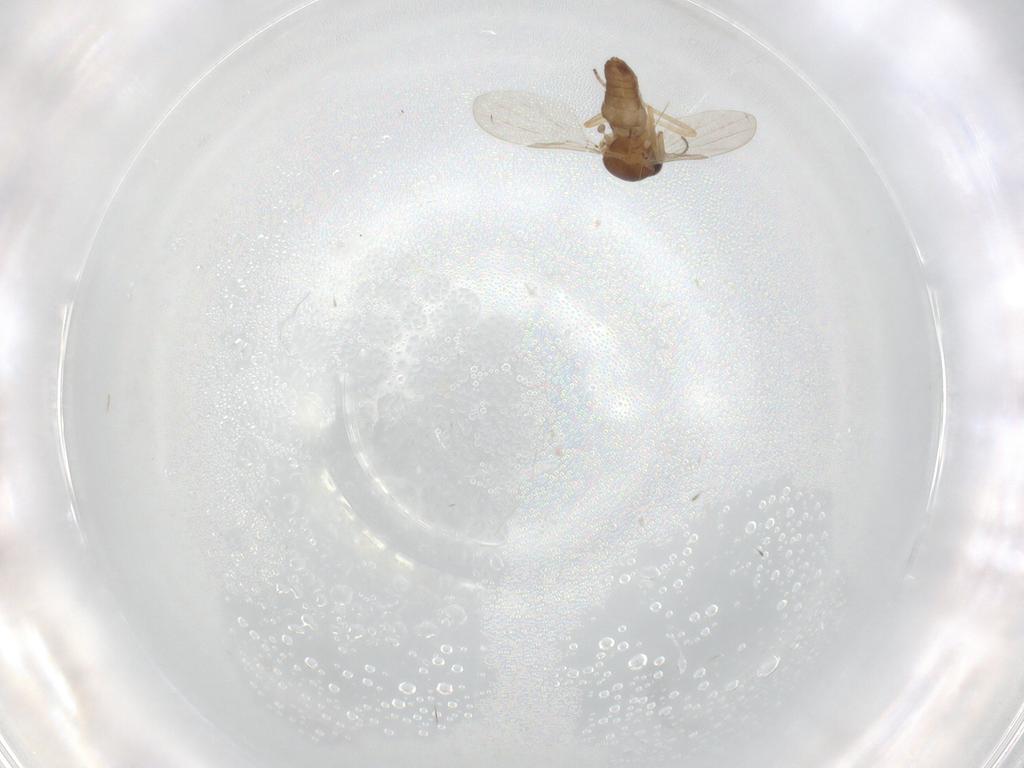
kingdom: Animalia
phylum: Arthropoda
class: Insecta
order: Diptera
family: Ceratopogonidae
